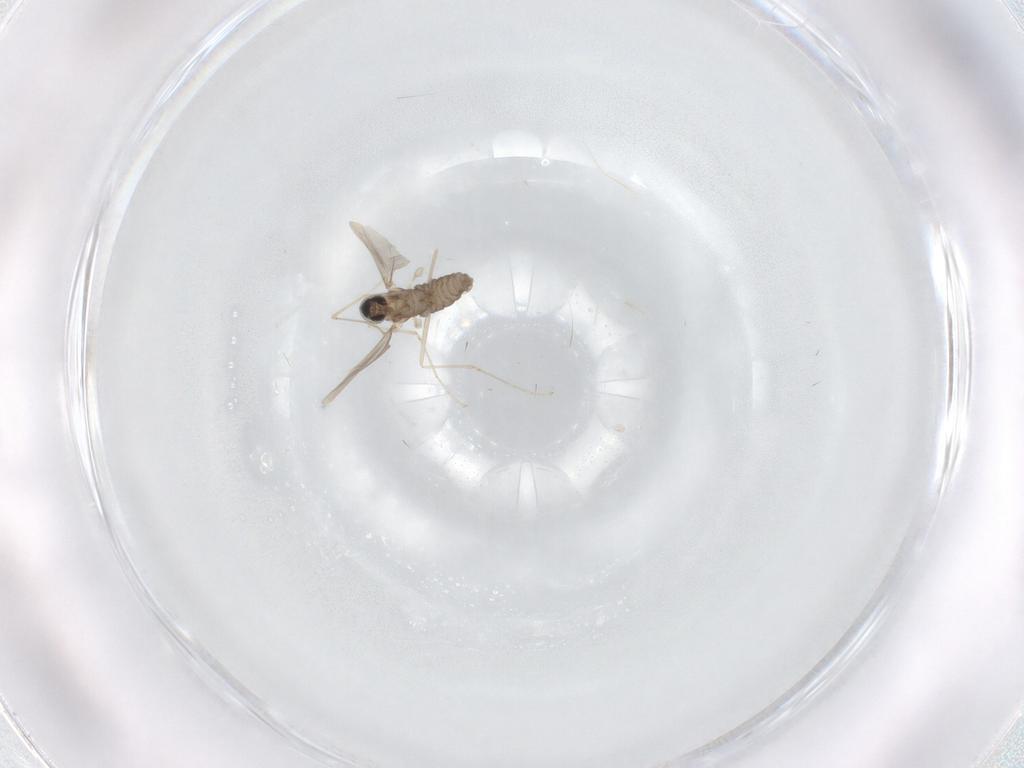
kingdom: Animalia
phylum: Arthropoda
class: Insecta
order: Diptera
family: Cecidomyiidae
